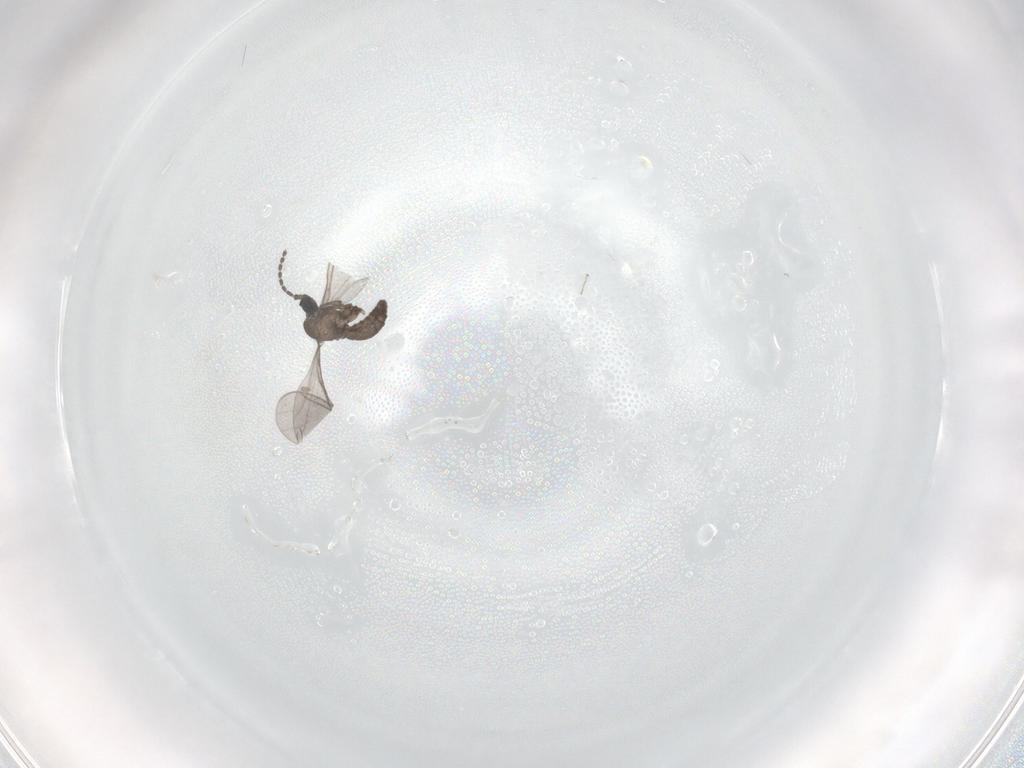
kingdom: Animalia
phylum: Arthropoda
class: Insecta
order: Diptera
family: Sciaridae
